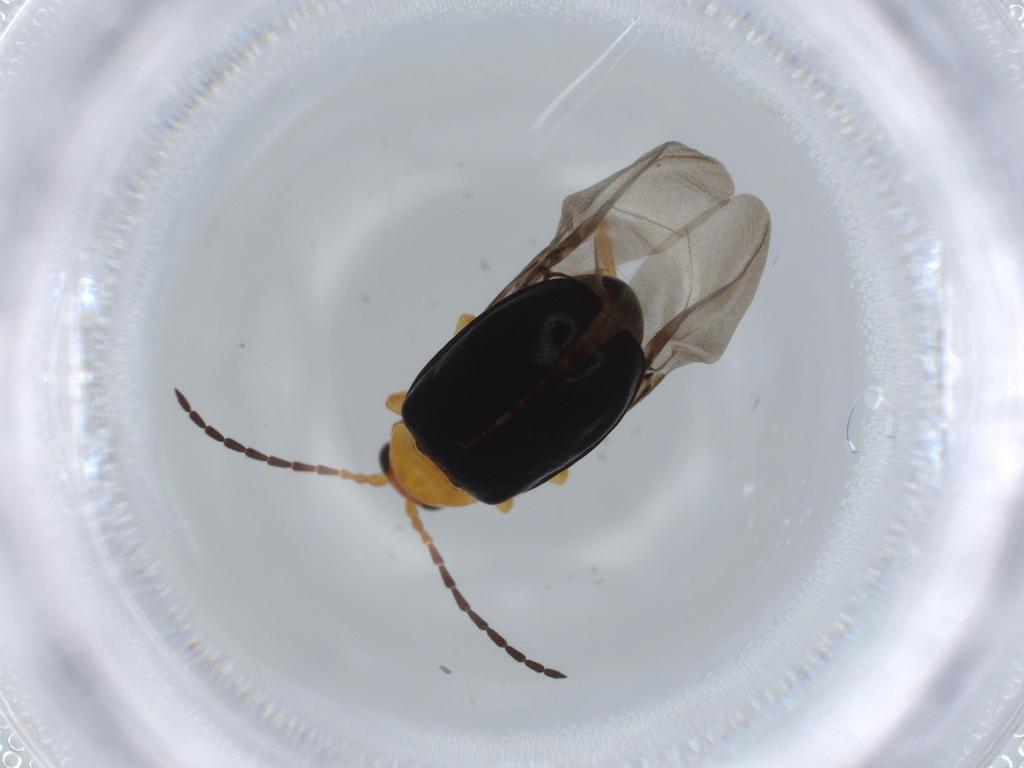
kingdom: Animalia
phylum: Arthropoda
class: Insecta
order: Coleoptera
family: Chrysomelidae
